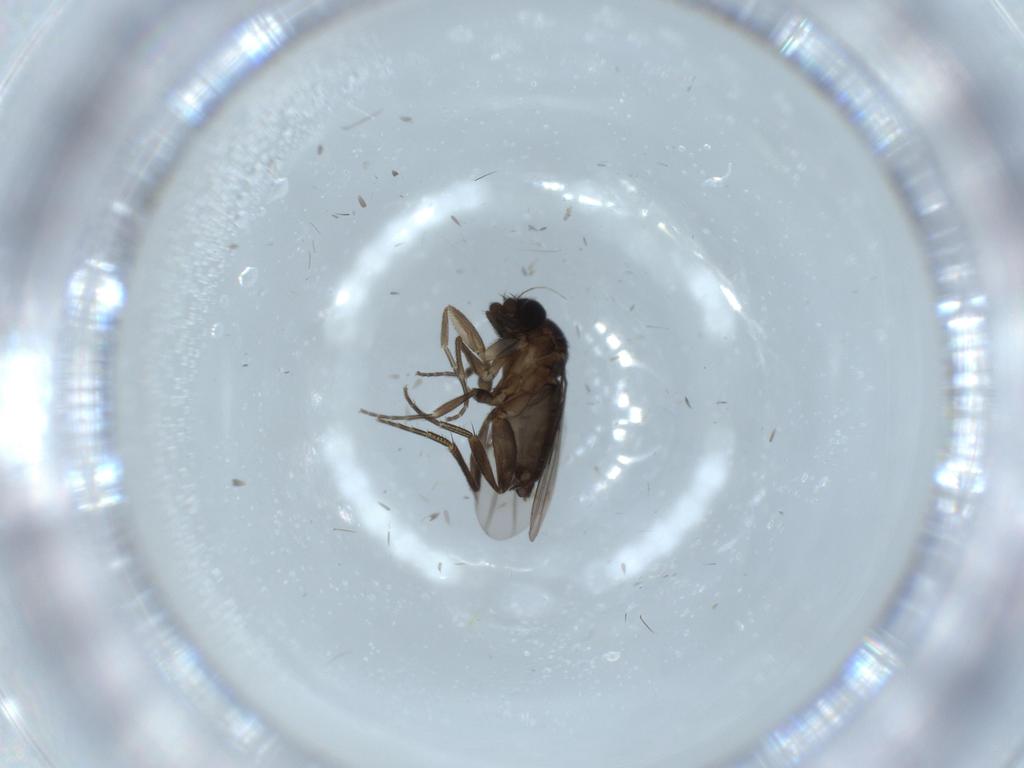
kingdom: Animalia
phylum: Arthropoda
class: Insecta
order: Diptera
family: Phoridae
